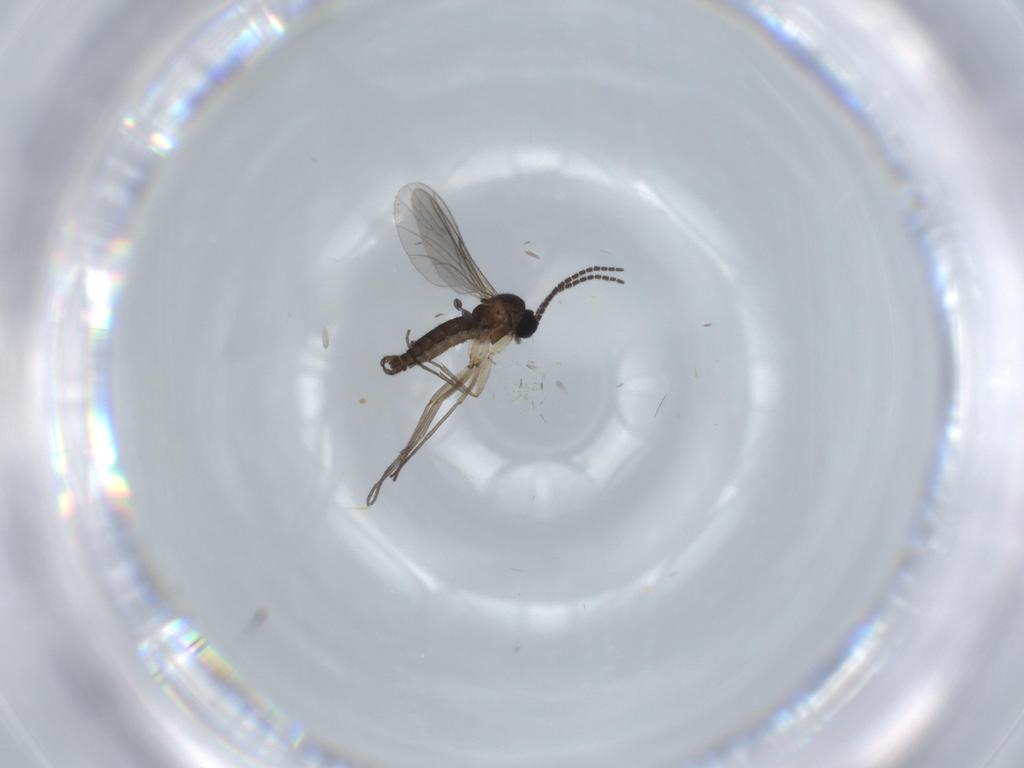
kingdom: Animalia
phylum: Arthropoda
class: Insecta
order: Diptera
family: Sciaridae
